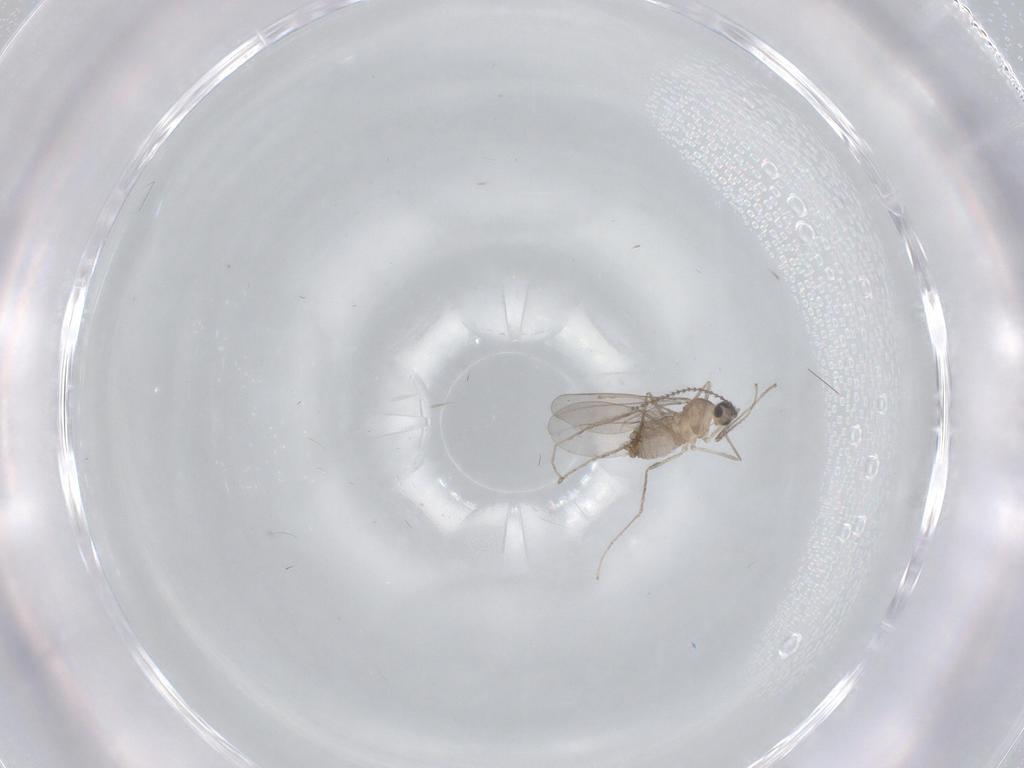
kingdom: Animalia
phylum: Arthropoda
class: Insecta
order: Diptera
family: Cecidomyiidae
